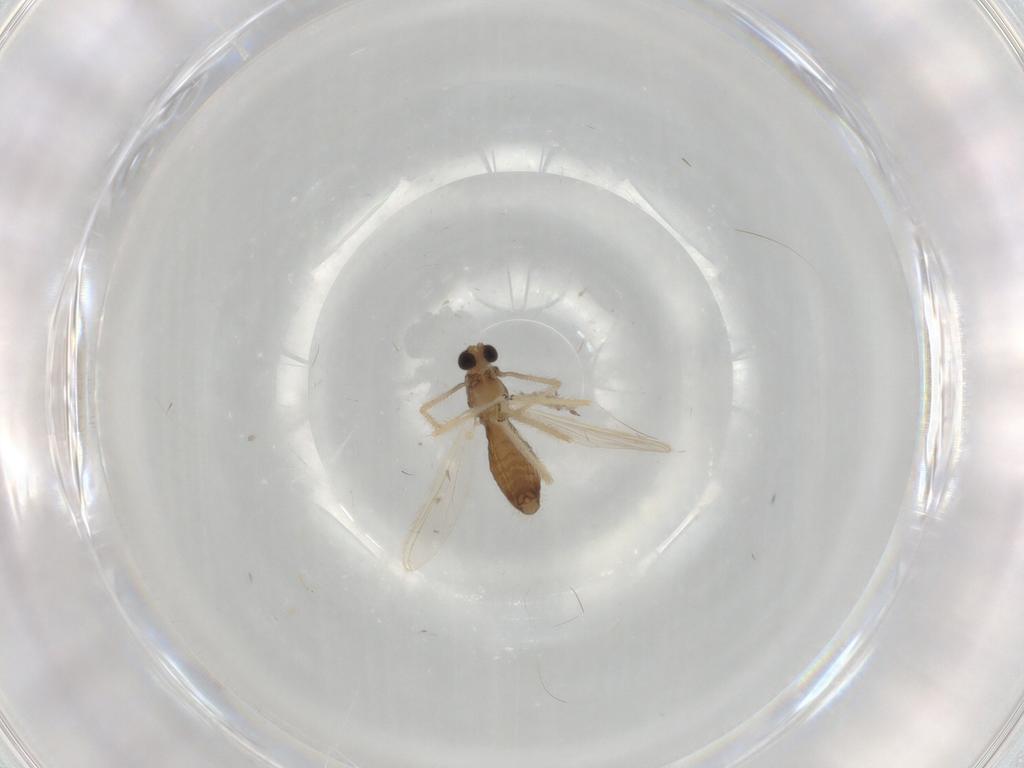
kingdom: Animalia
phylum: Arthropoda
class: Insecta
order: Diptera
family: Chironomidae
